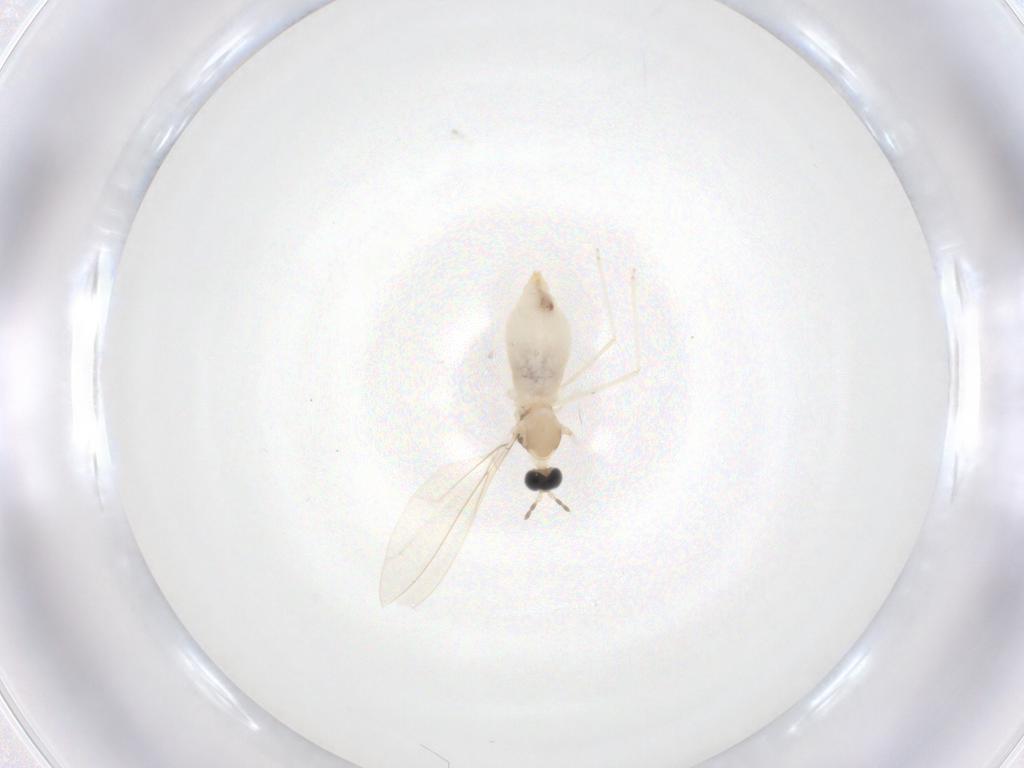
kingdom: Animalia
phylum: Arthropoda
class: Insecta
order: Diptera
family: Cecidomyiidae
